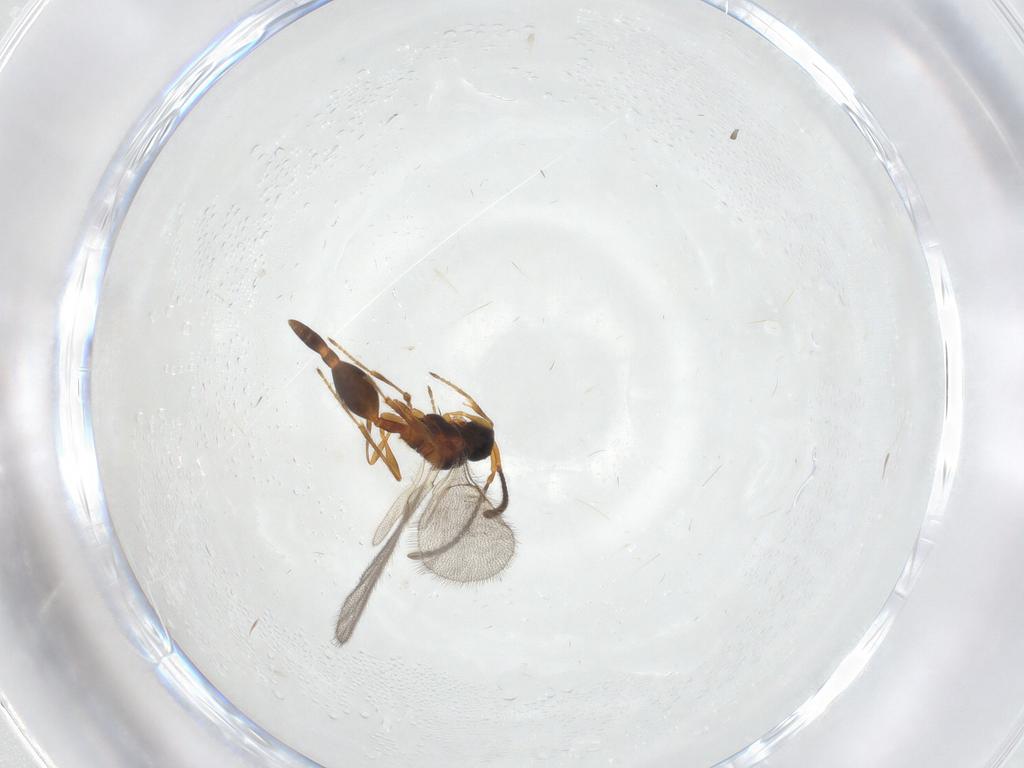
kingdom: Animalia
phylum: Arthropoda
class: Insecta
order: Hymenoptera
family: Diapriidae
